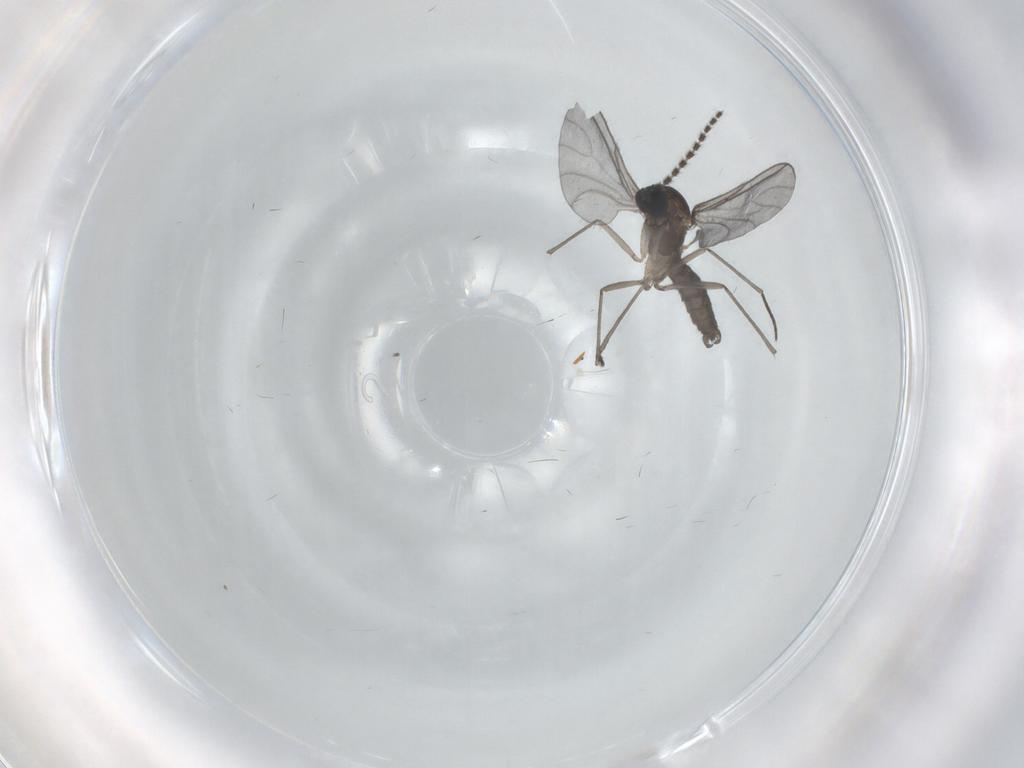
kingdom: Animalia
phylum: Arthropoda
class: Insecta
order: Diptera
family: Sciaridae
